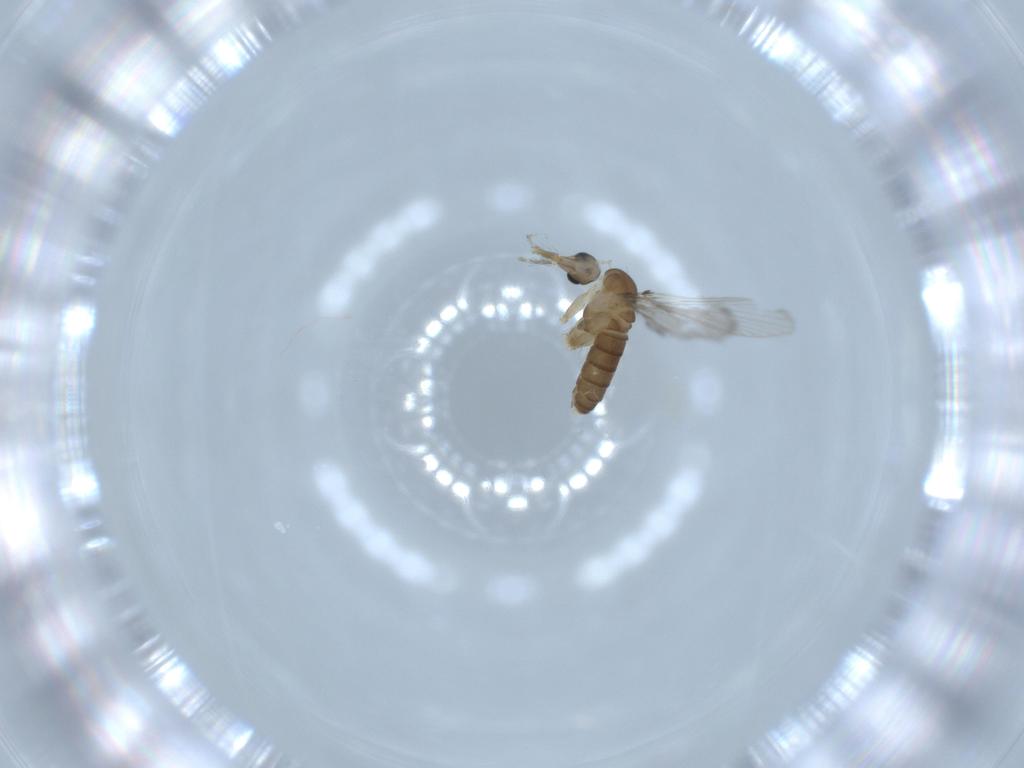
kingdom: Animalia
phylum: Arthropoda
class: Insecta
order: Diptera
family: Psychodidae
